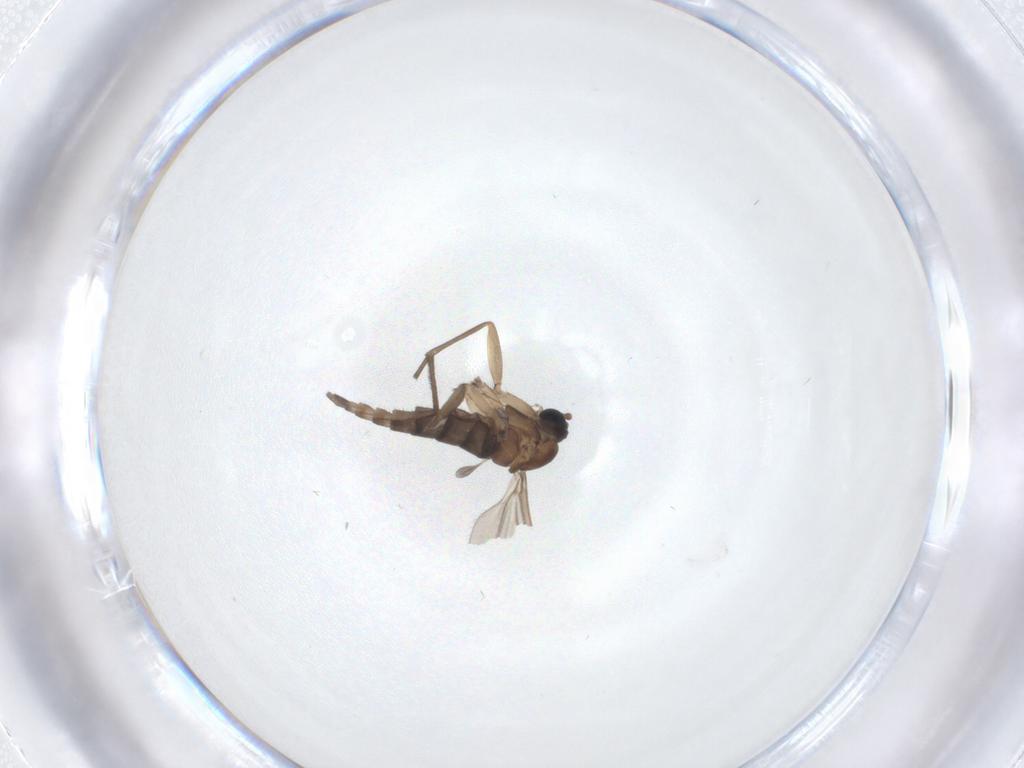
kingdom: Animalia
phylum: Arthropoda
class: Insecta
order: Diptera
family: Sciaridae
